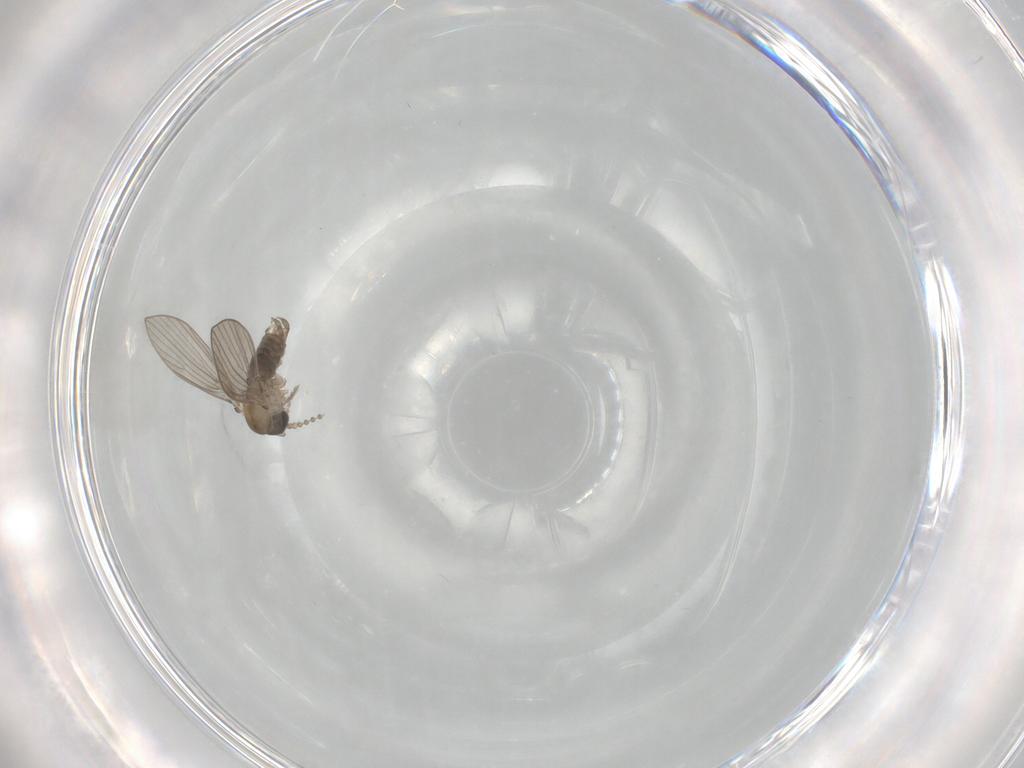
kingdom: Animalia
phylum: Arthropoda
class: Insecta
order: Diptera
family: Psychodidae
